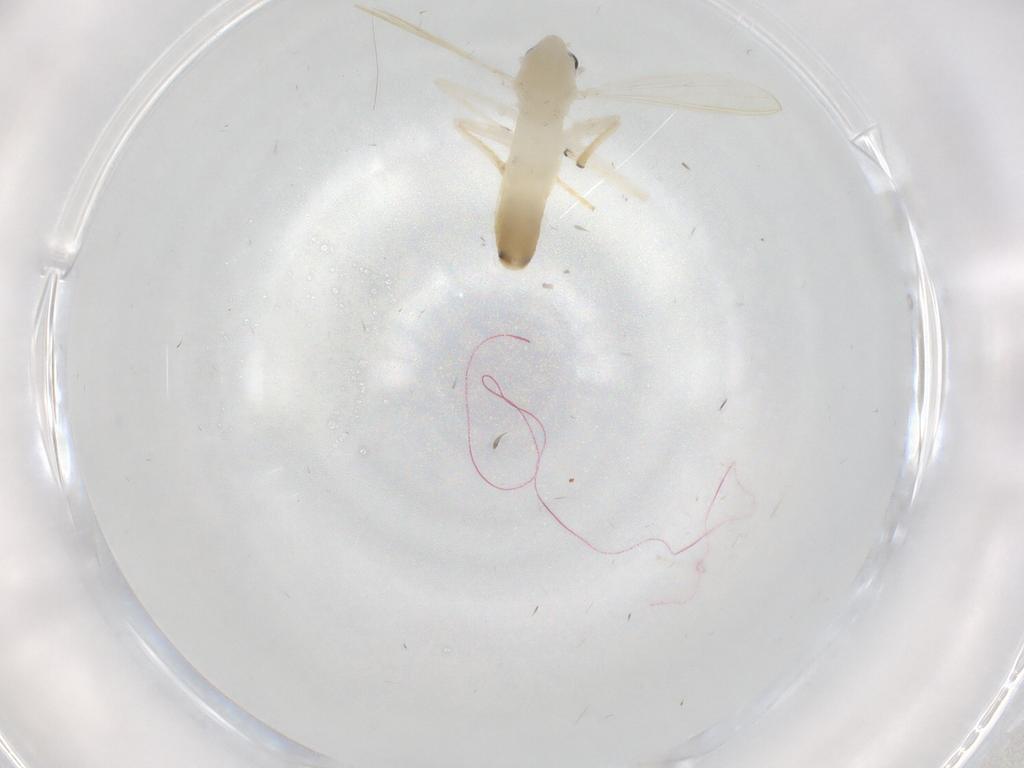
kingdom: Animalia
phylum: Arthropoda
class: Insecta
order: Diptera
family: Chironomidae
